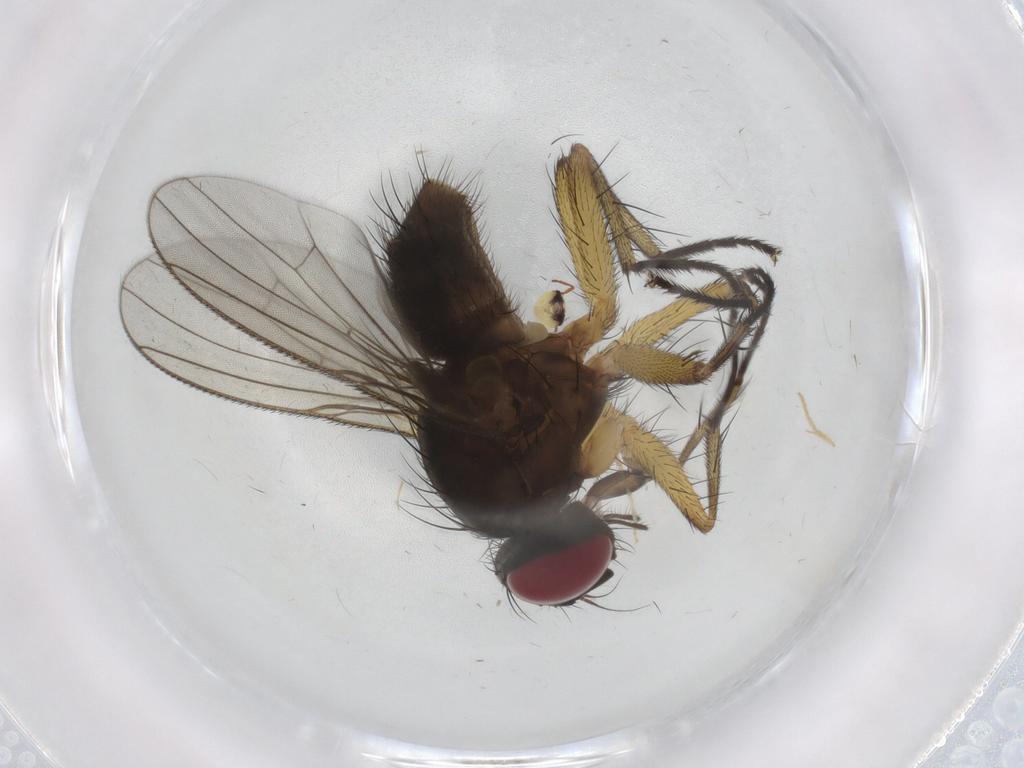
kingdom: Animalia
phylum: Arthropoda
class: Insecta
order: Diptera
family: Muscidae
